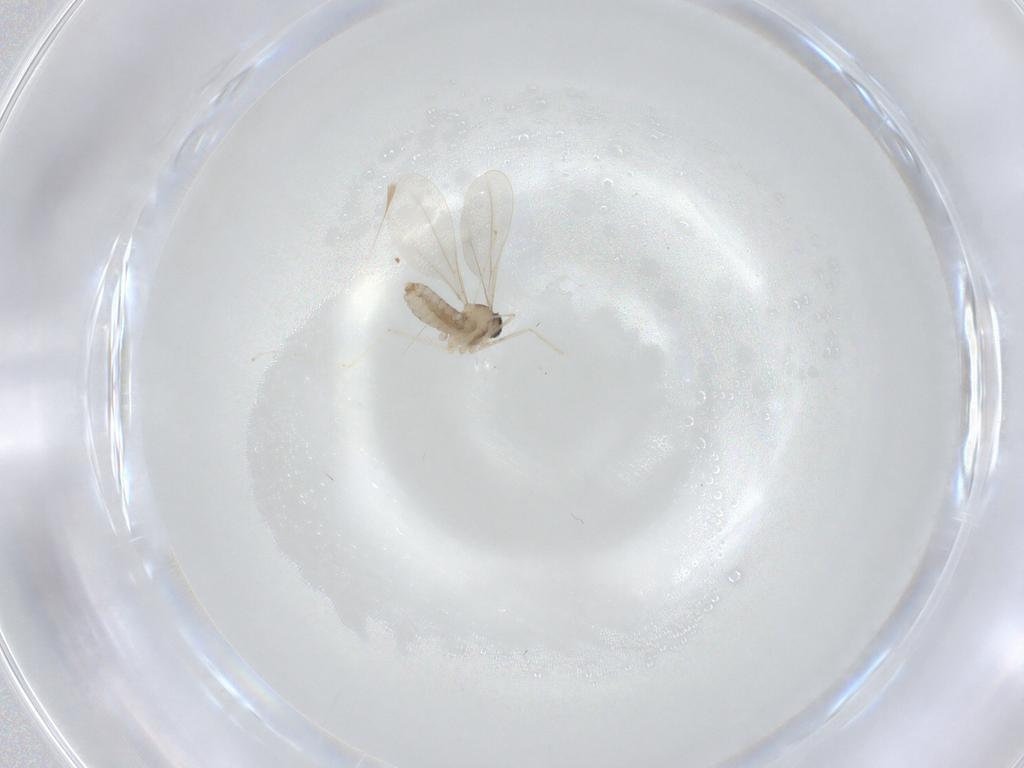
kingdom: Animalia
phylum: Arthropoda
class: Insecta
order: Diptera
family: Cecidomyiidae
